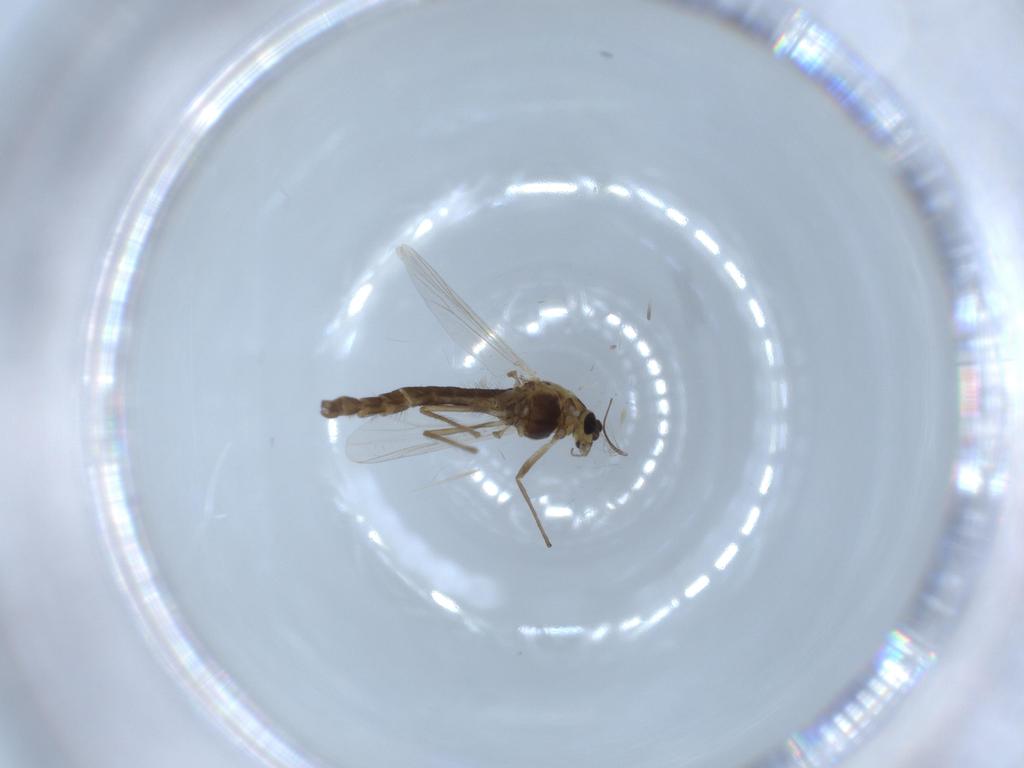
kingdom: Animalia
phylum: Arthropoda
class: Insecta
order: Diptera
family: Chironomidae
